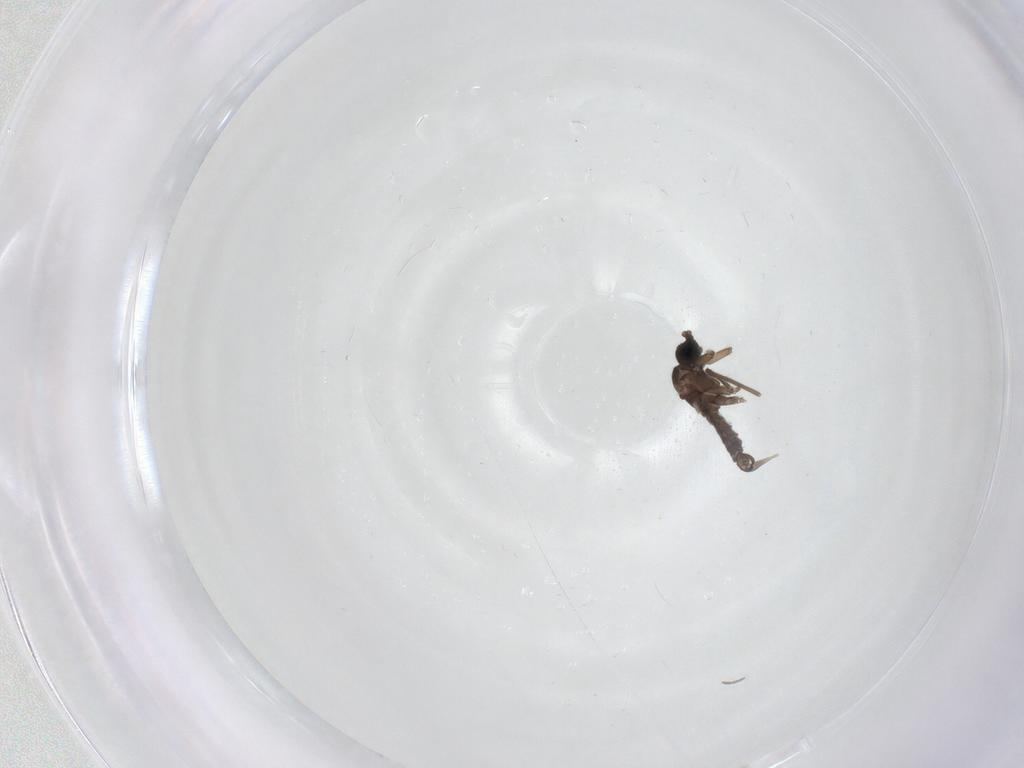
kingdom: Animalia
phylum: Arthropoda
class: Insecta
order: Diptera
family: Sciaridae
